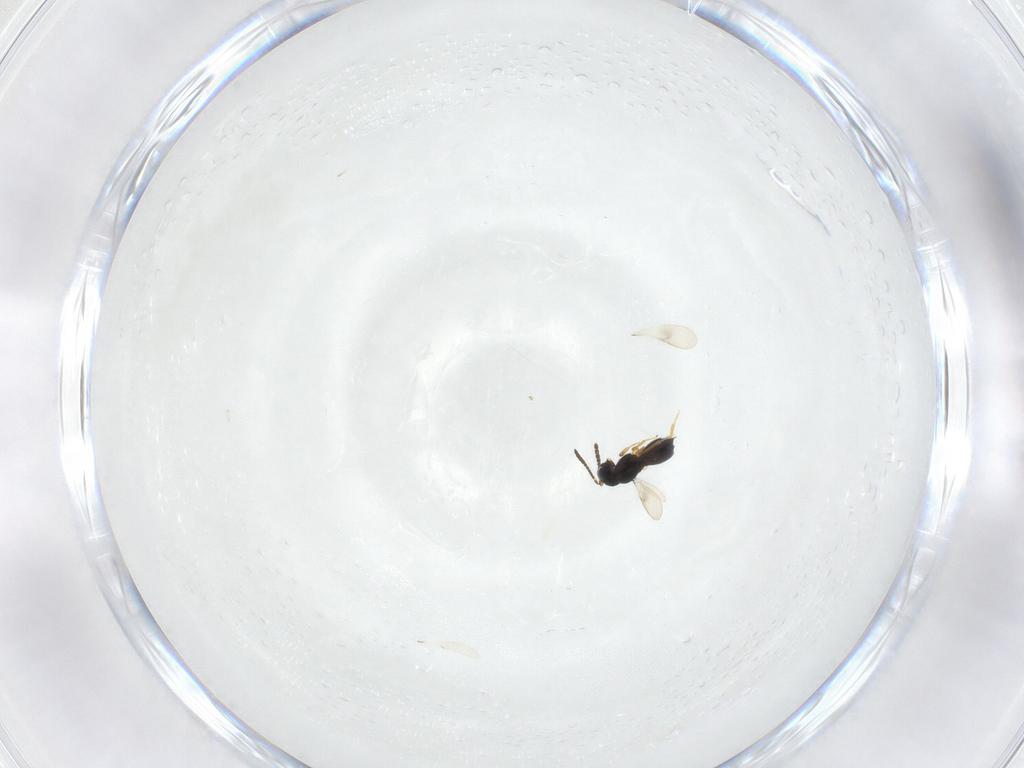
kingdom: Animalia
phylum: Arthropoda
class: Insecta
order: Hymenoptera
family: Scelionidae
